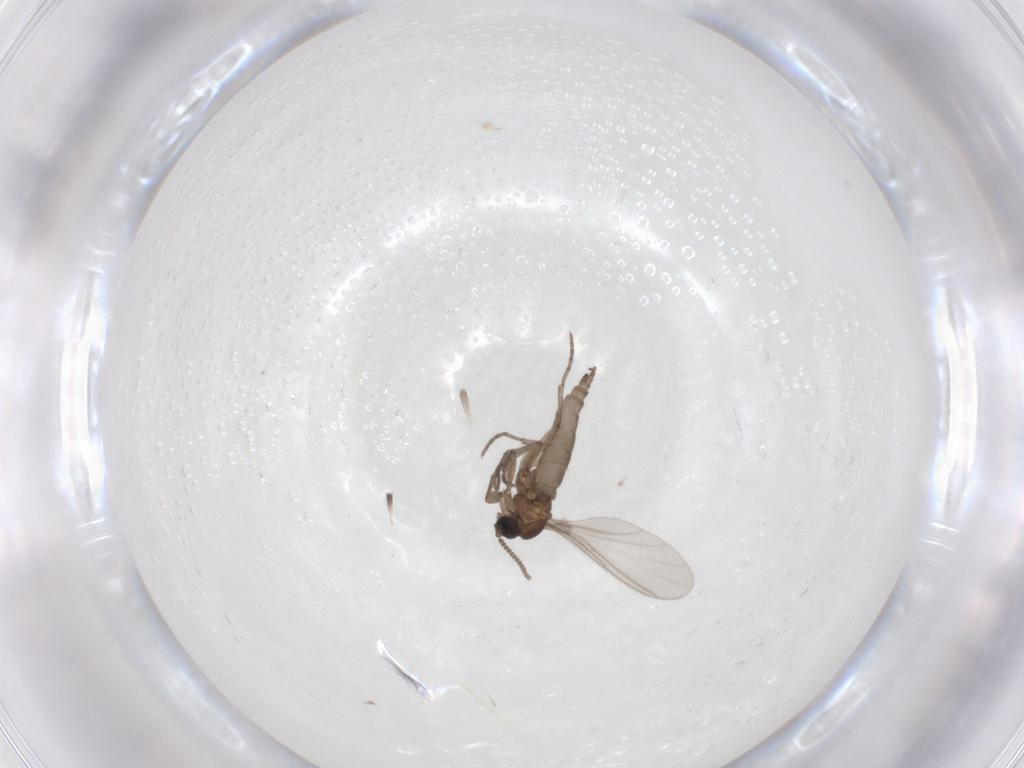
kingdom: Animalia
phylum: Arthropoda
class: Insecta
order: Diptera
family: Sciaridae
